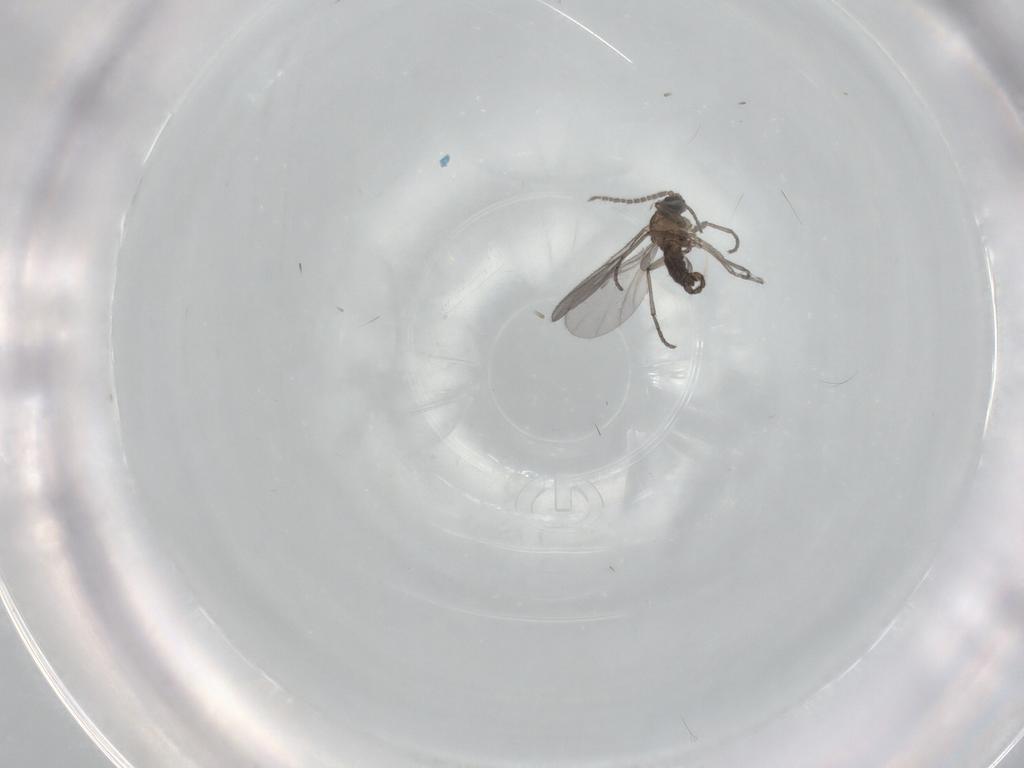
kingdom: Animalia
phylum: Arthropoda
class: Insecta
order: Diptera
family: Sciaridae
